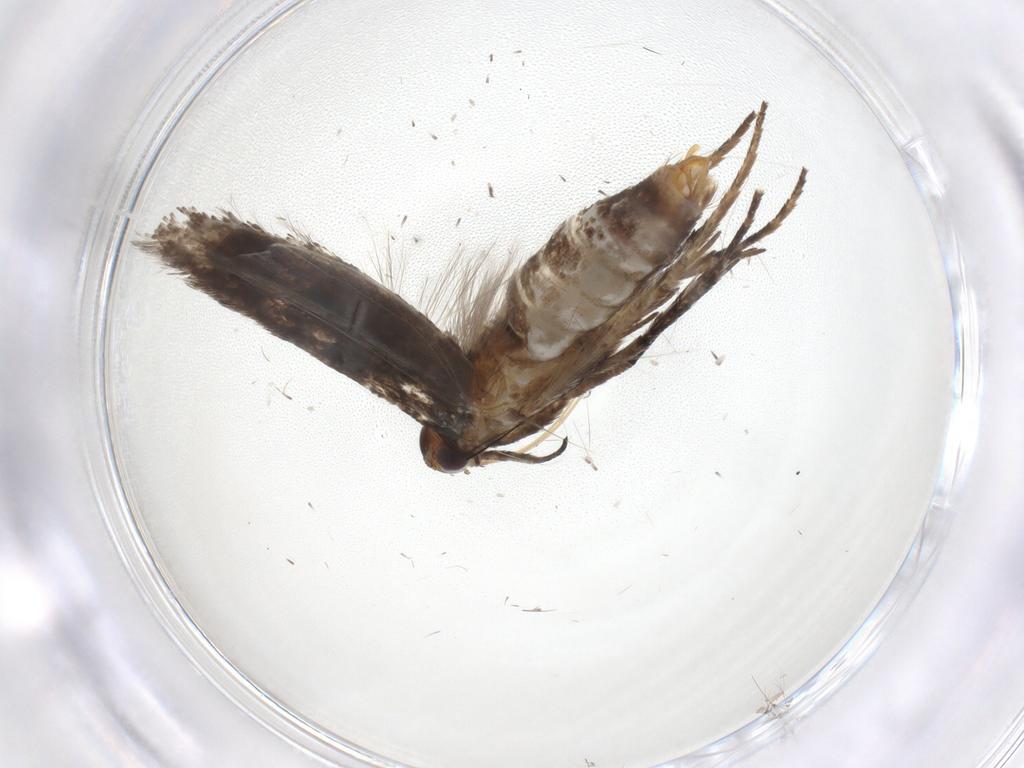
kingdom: Animalia
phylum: Arthropoda
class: Insecta
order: Lepidoptera
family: Gelechiidae
